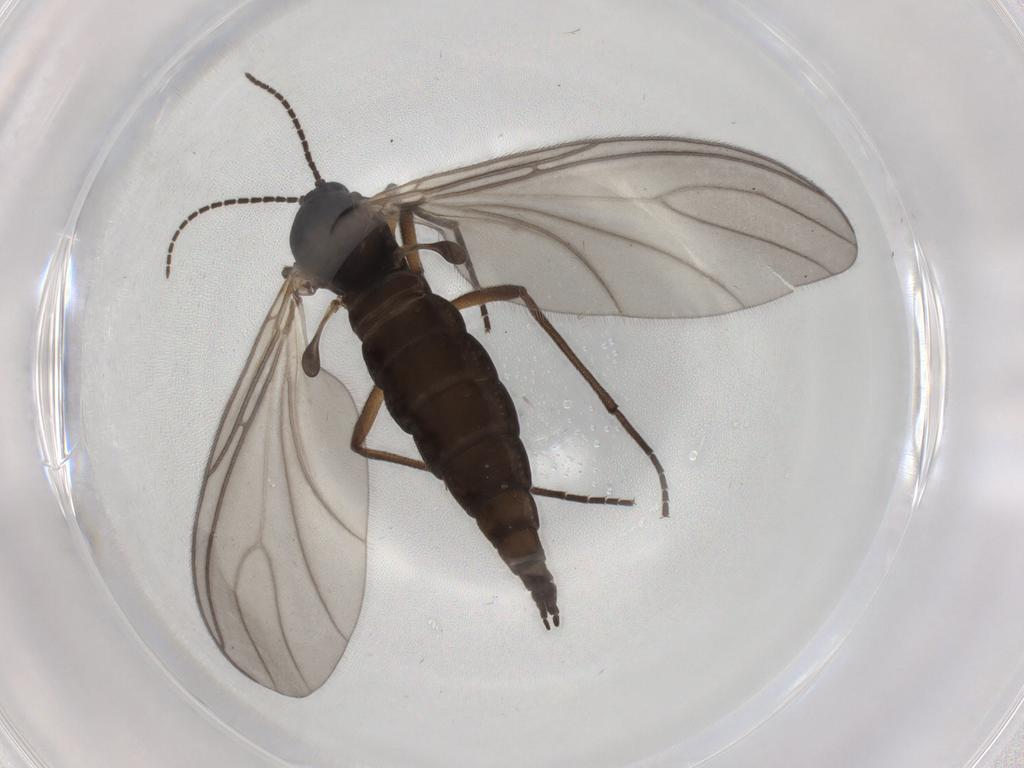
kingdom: Animalia
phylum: Arthropoda
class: Insecta
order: Diptera
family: Sciaridae
